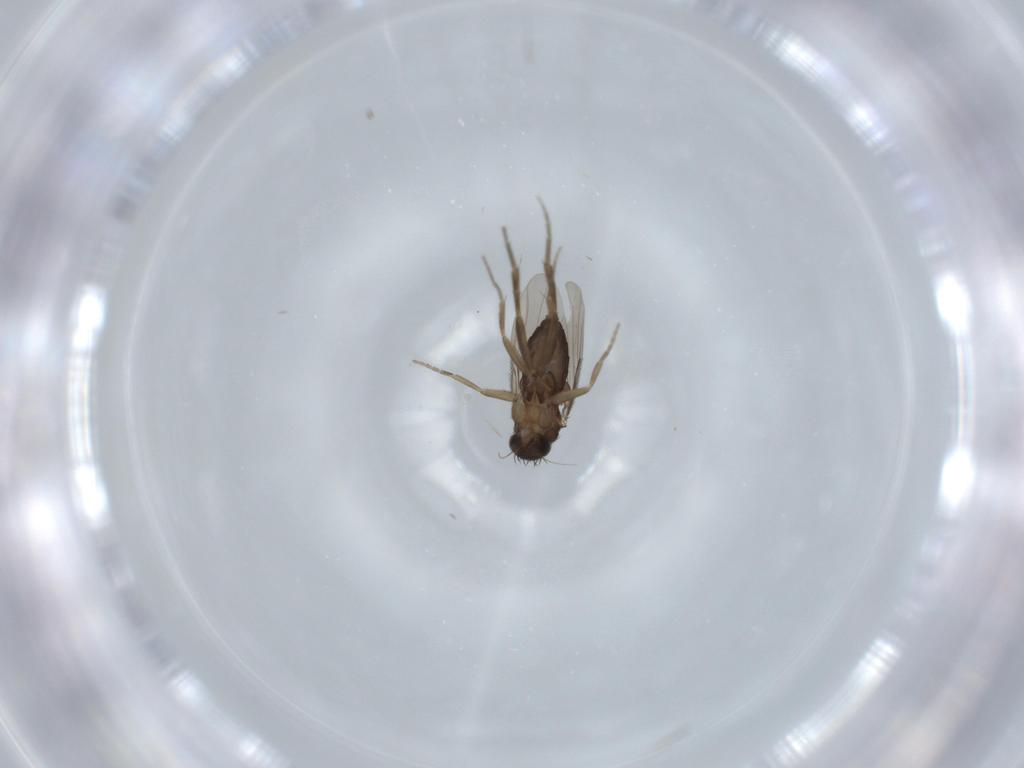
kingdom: Animalia
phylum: Arthropoda
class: Insecta
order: Diptera
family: Phoridae
